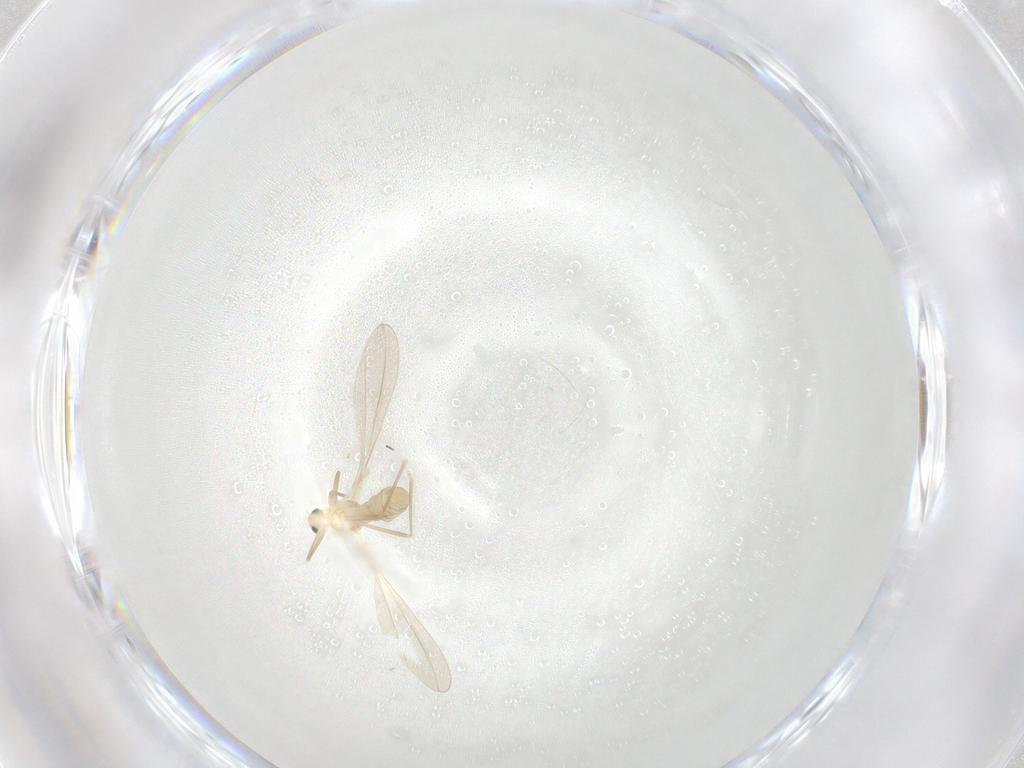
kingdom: Animalia
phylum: Arthropoda
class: Insecta
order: Diptera
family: Cecidomyiidae
